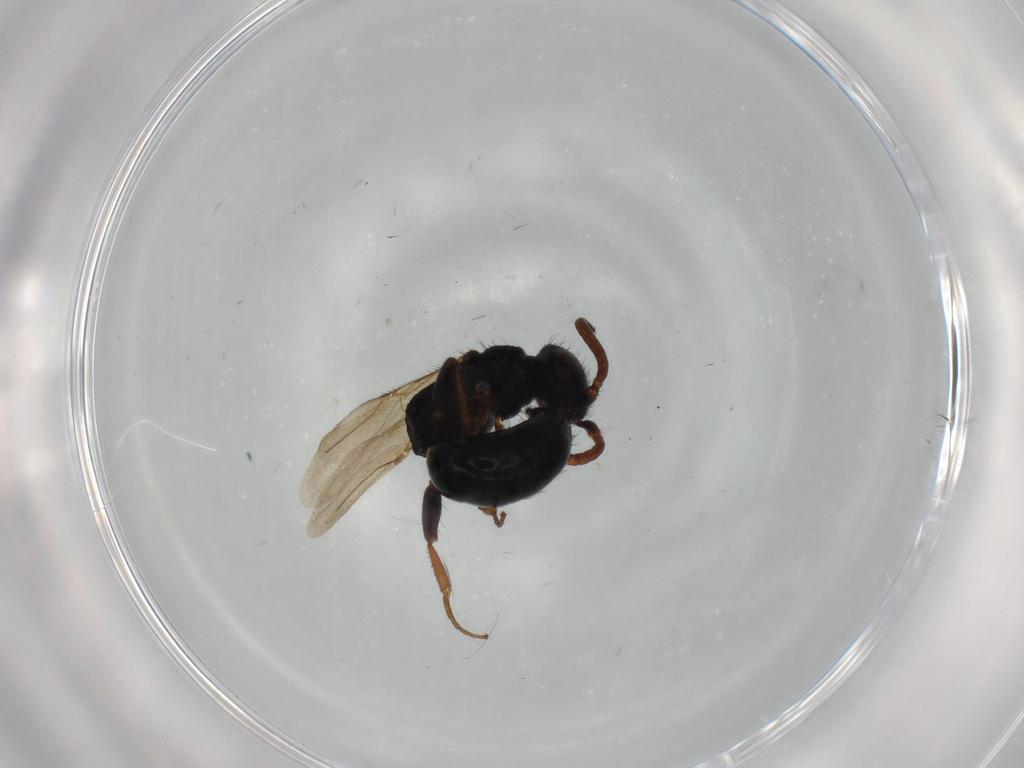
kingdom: Animalia
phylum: Arthropoda
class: Insecta
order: Hymenoptera
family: Bethylidae
